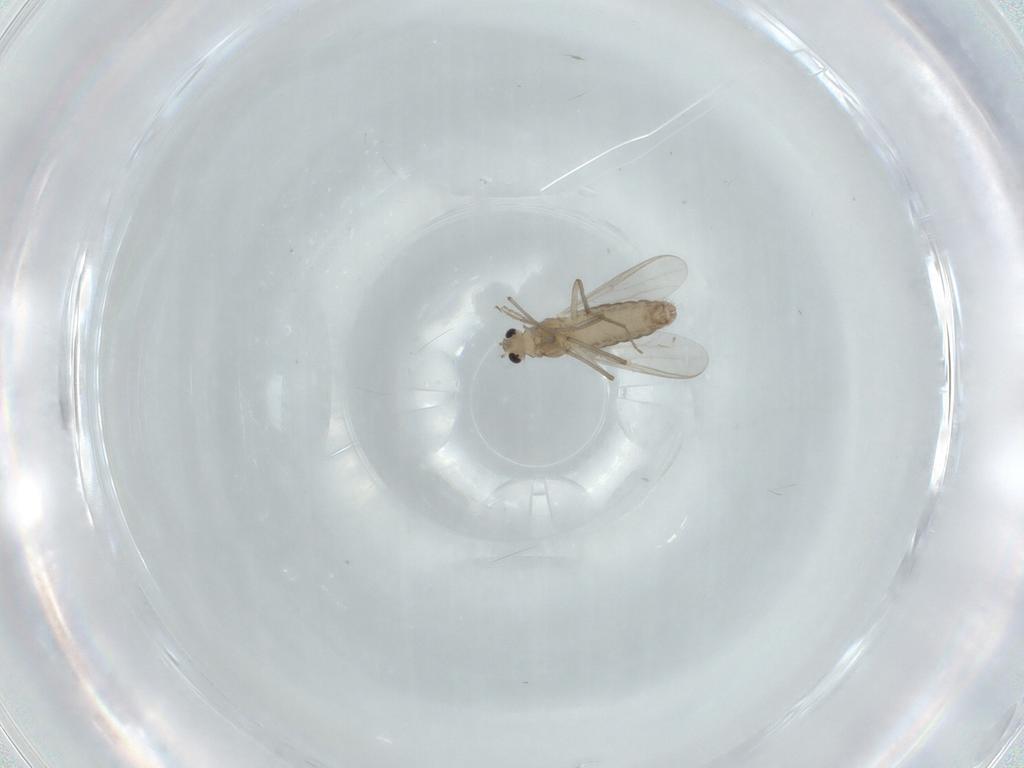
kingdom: Animalia
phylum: Arthropoda
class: Insecta
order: Diptera
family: Chironomidae
